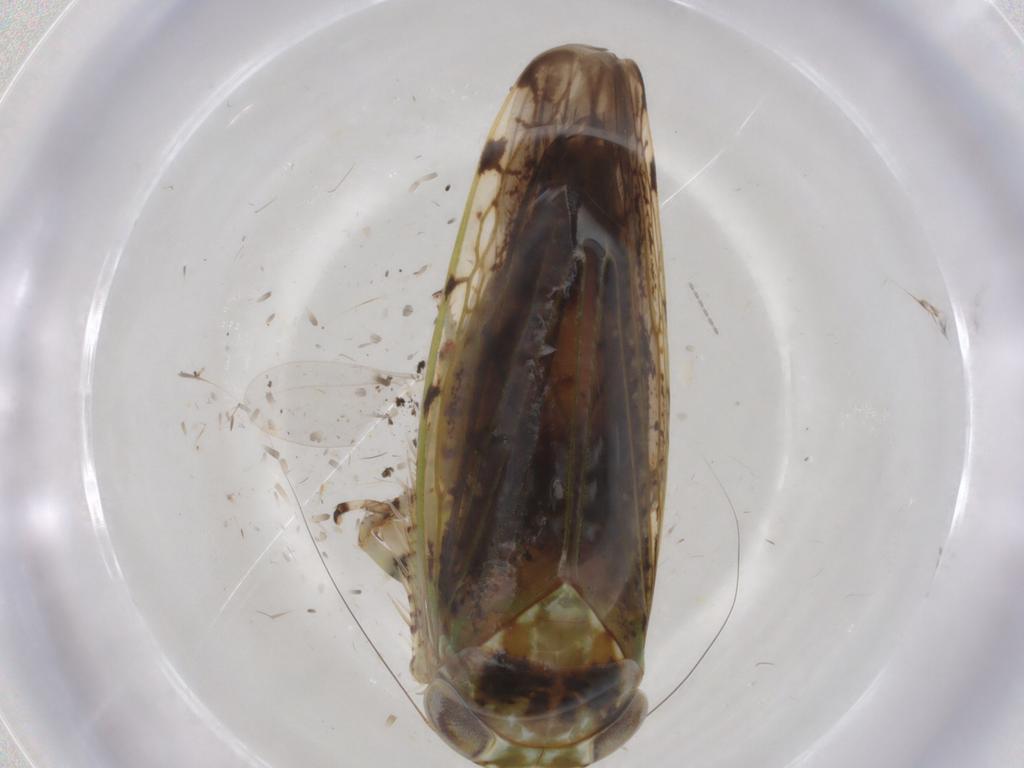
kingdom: Animalia
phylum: Arthropoda
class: Insecta
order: Hemiptera
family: Cicadellidae
